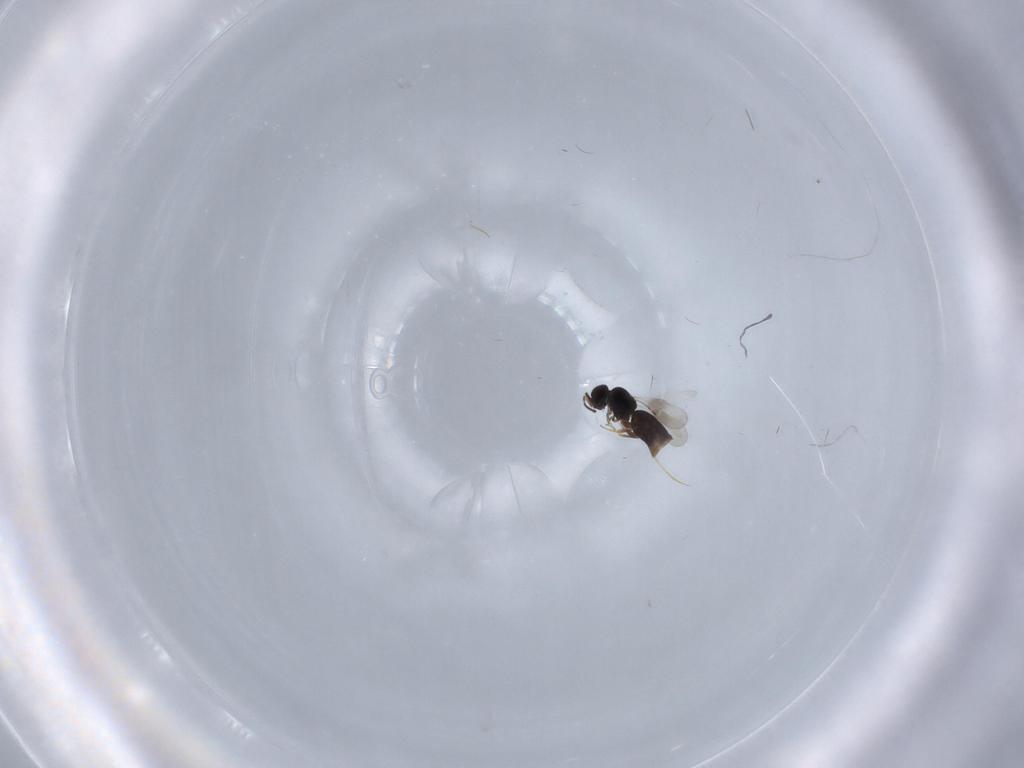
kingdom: Animalia
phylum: Arthropoda
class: Insecta
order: Hymenoptera
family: Ceraphronidae
